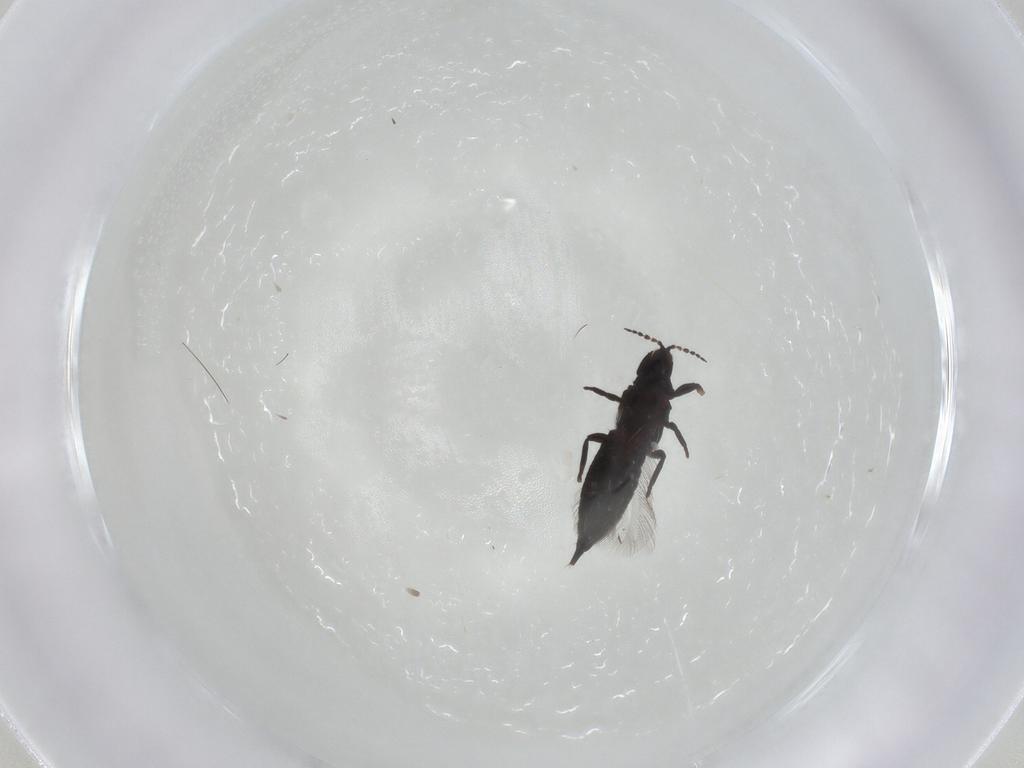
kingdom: Animalia
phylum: Arthropoda
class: Insecta
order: Thysanoptera
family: Phlaeothripidae
